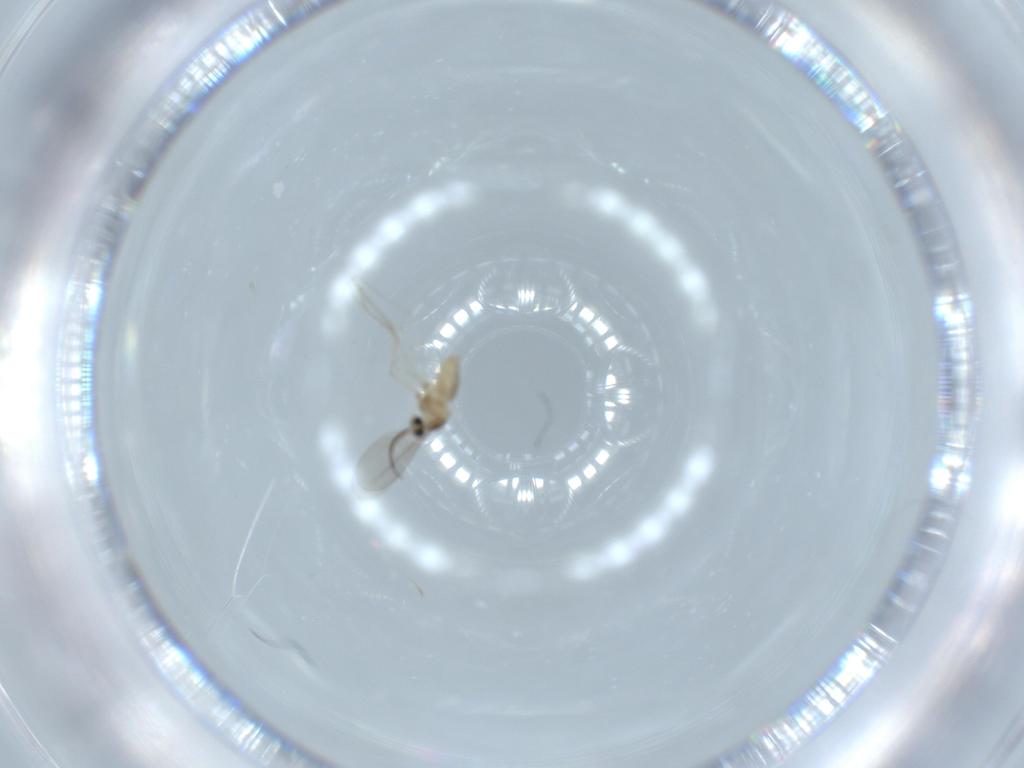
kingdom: Animalia
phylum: Arthropoda
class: Insecta
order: Diptera
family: Cecidomyiidae
